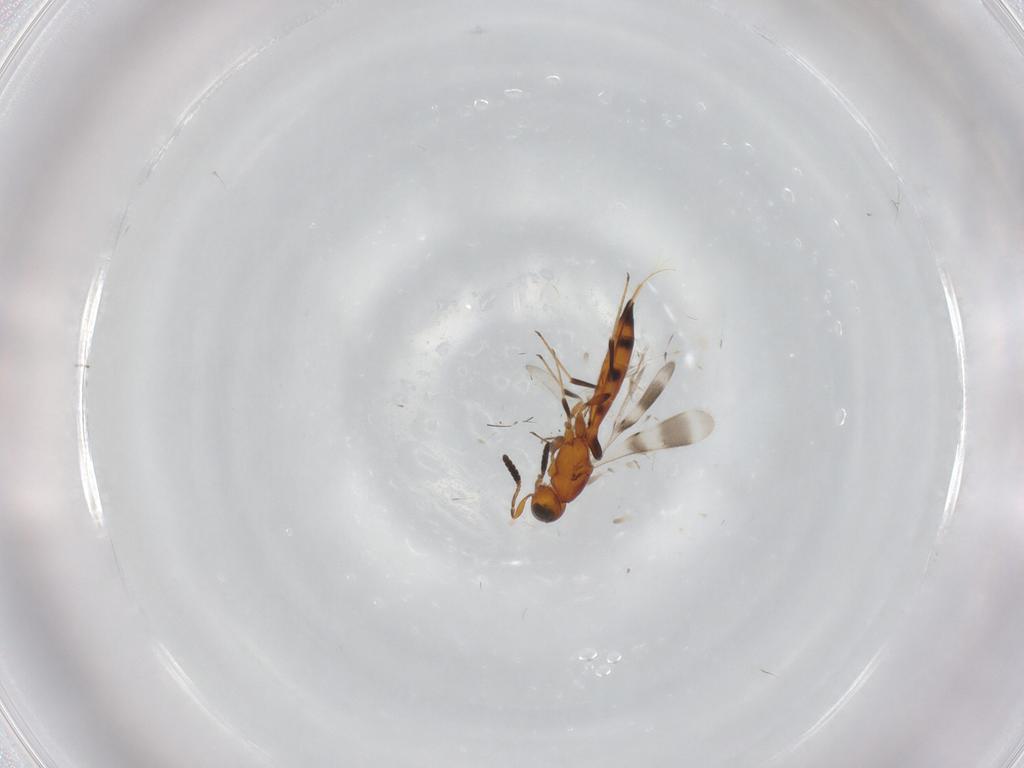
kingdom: Animalia
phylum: Arthropoda
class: Insecta
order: Hymenoptera
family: Scelionidae
